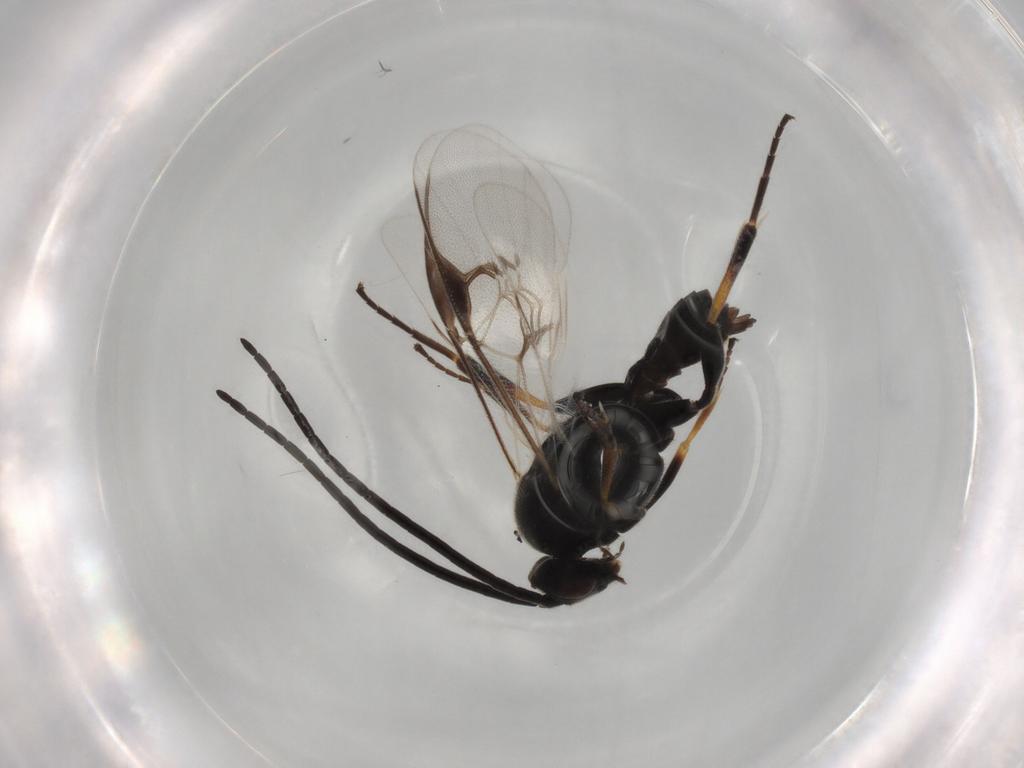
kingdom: Animalia
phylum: Arthropoda
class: Insecta
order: Hymenoptera
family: Braconidae
